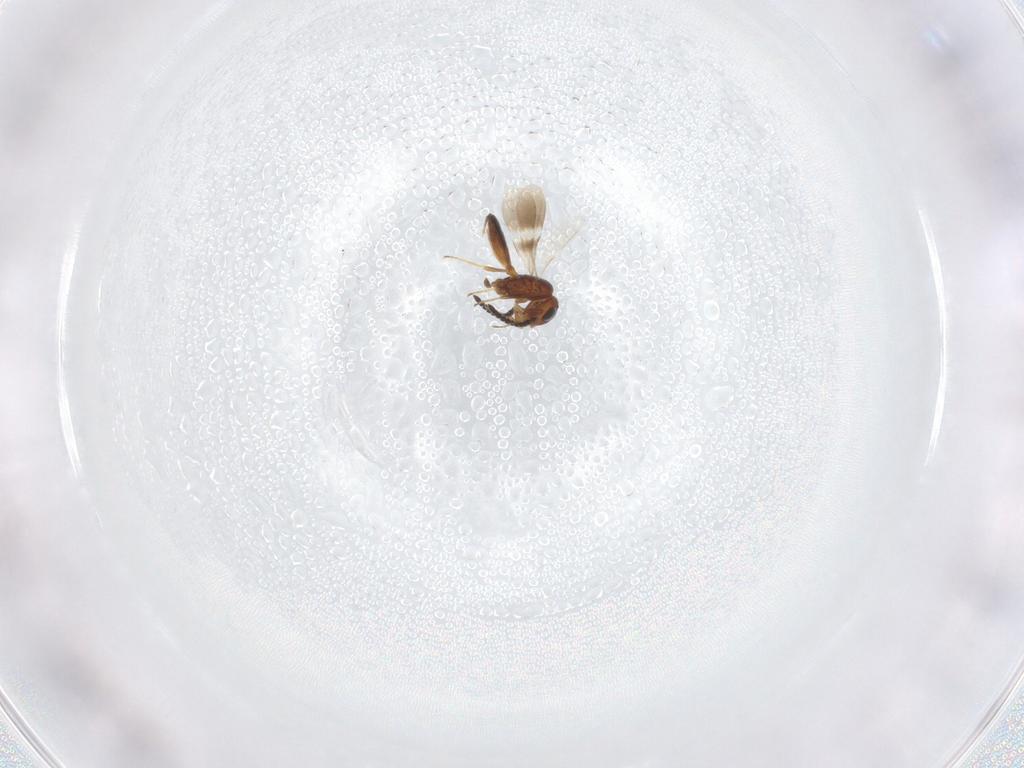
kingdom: Animalia
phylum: Arthropoda
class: Insecta
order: Hymenoptera
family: Scelionidae
